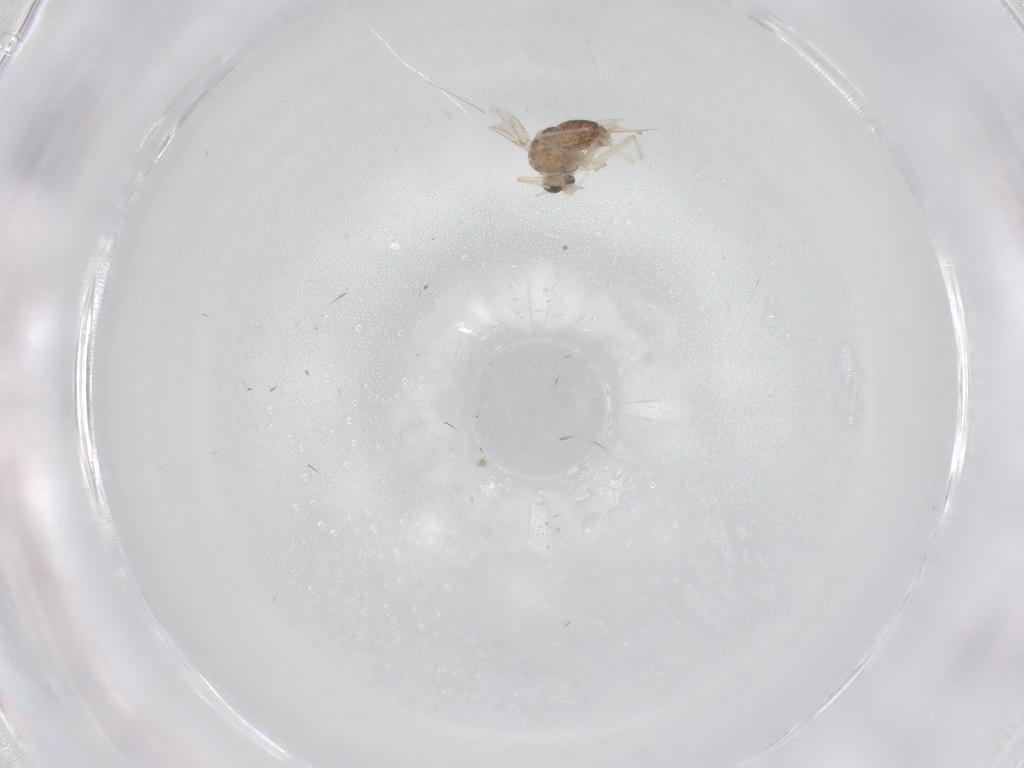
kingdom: Animalia
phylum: Arthropoda
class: Insecta
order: Diptera
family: Chironomidae
